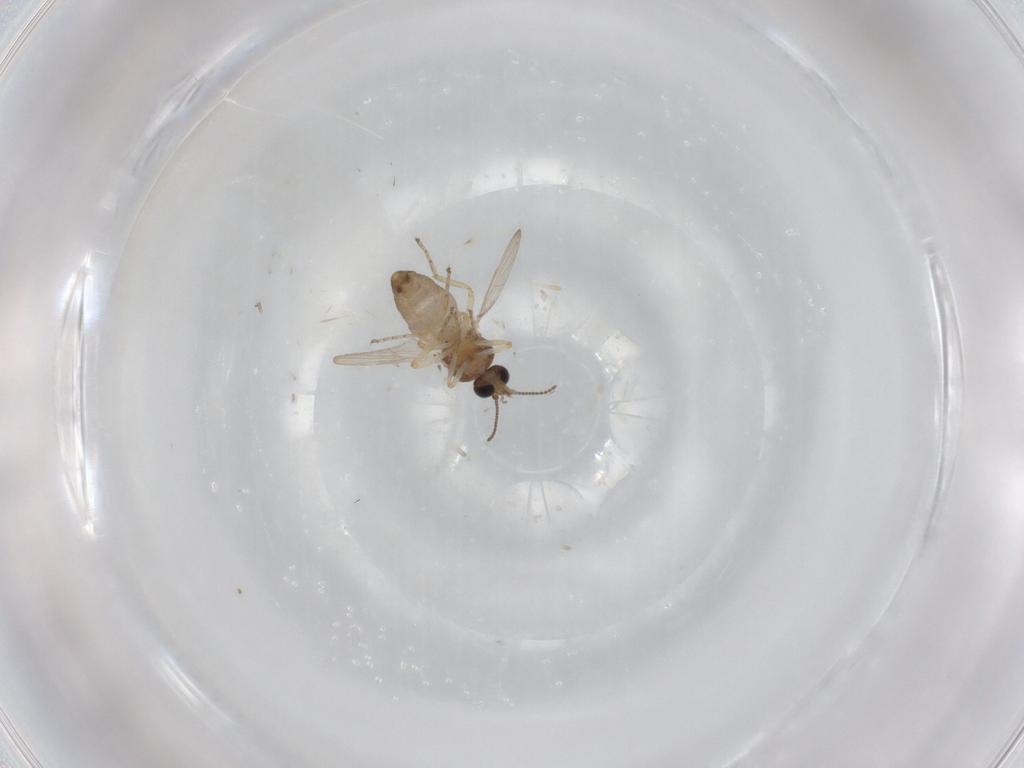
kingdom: Animalia
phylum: Arthropoda
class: Insecta
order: Diptera
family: Ceratopogonidae
